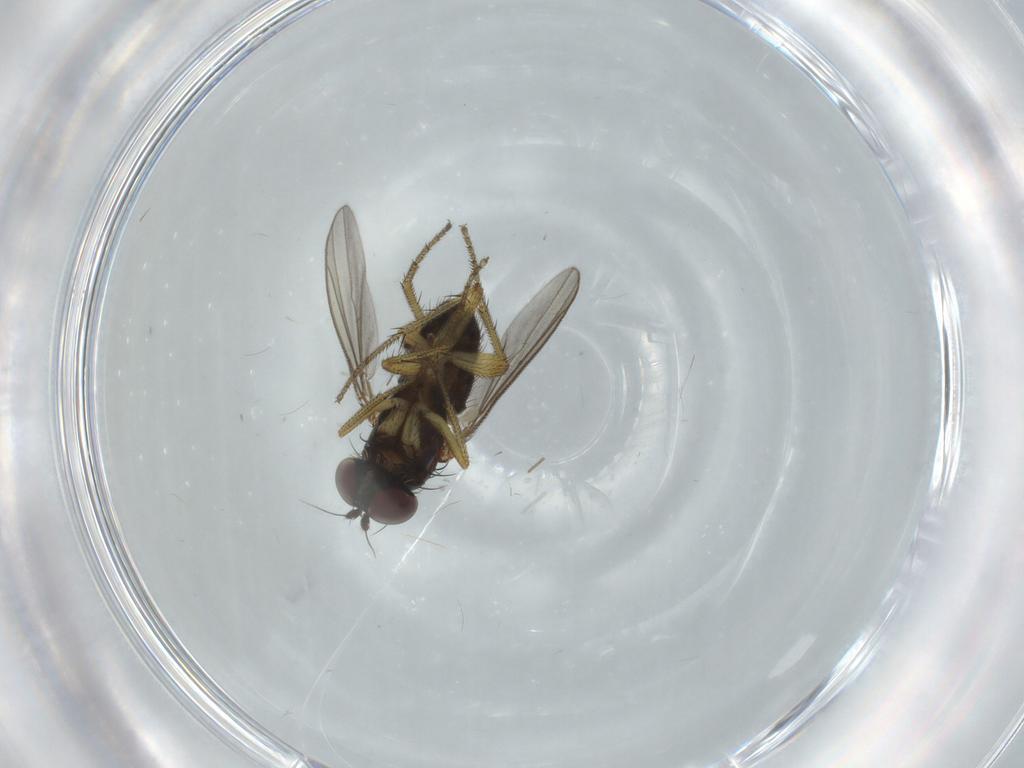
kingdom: Animalia
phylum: Arthropoda
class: Insecta
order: Diptera
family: Dolichopodidae
